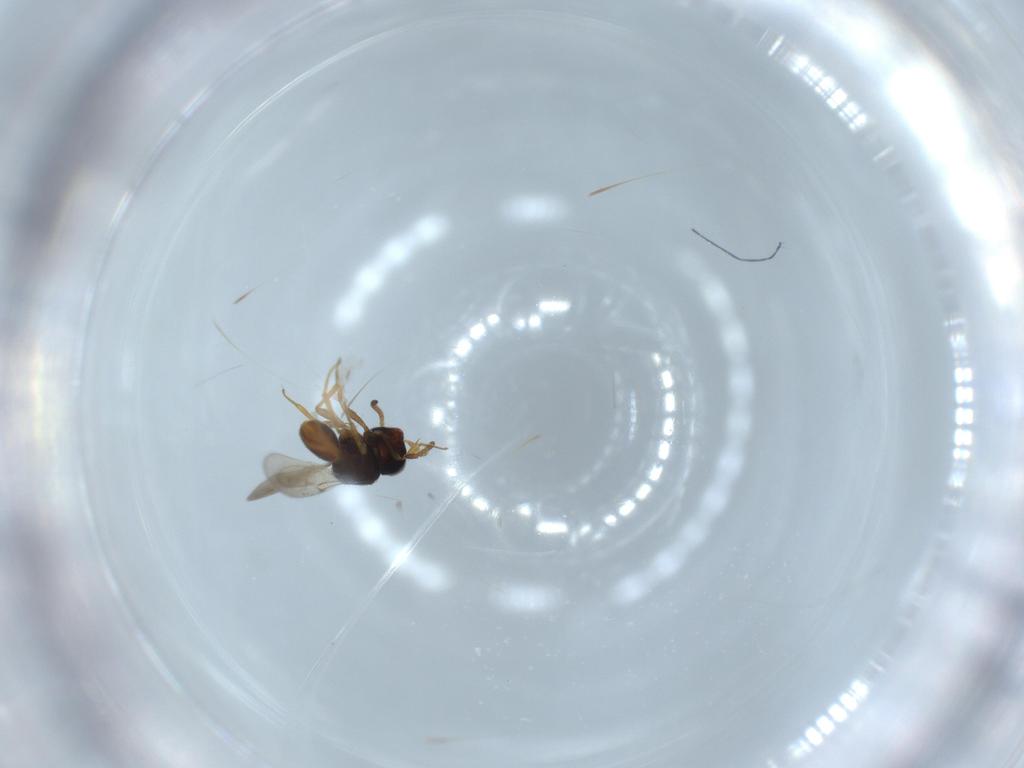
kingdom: Animalia
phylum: Arthropoda
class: Insecta
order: Hymenoptera
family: Scelionidae
